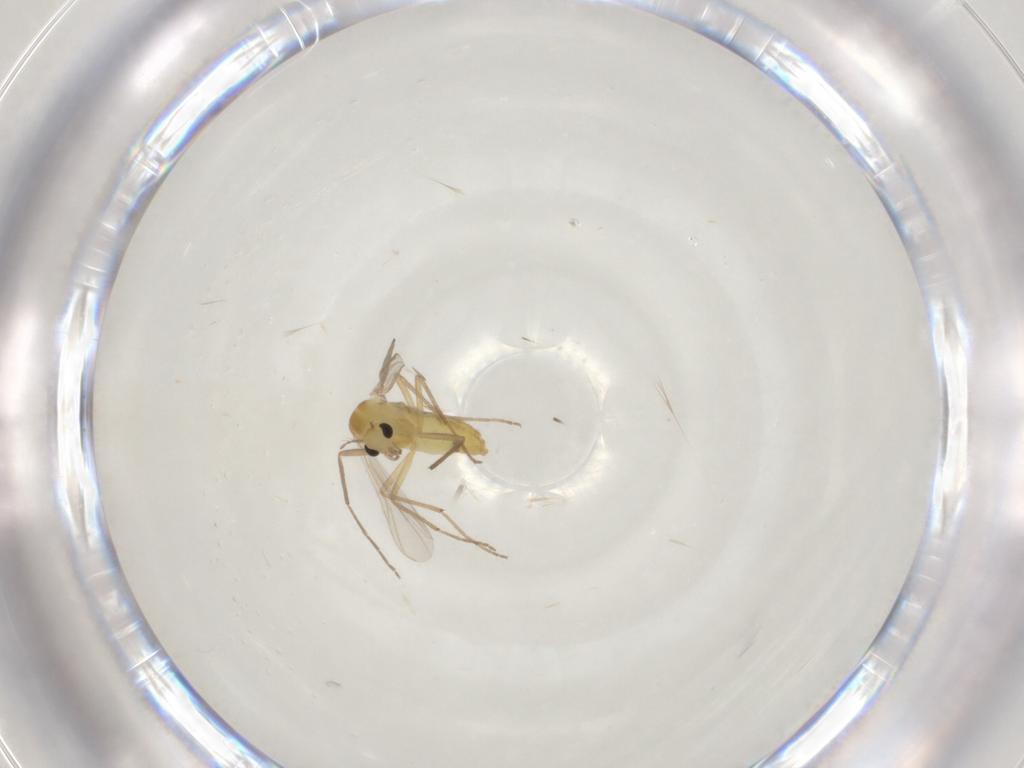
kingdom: Animalia
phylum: Arthropoda
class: Insecta
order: Diptera
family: Chironomidae
